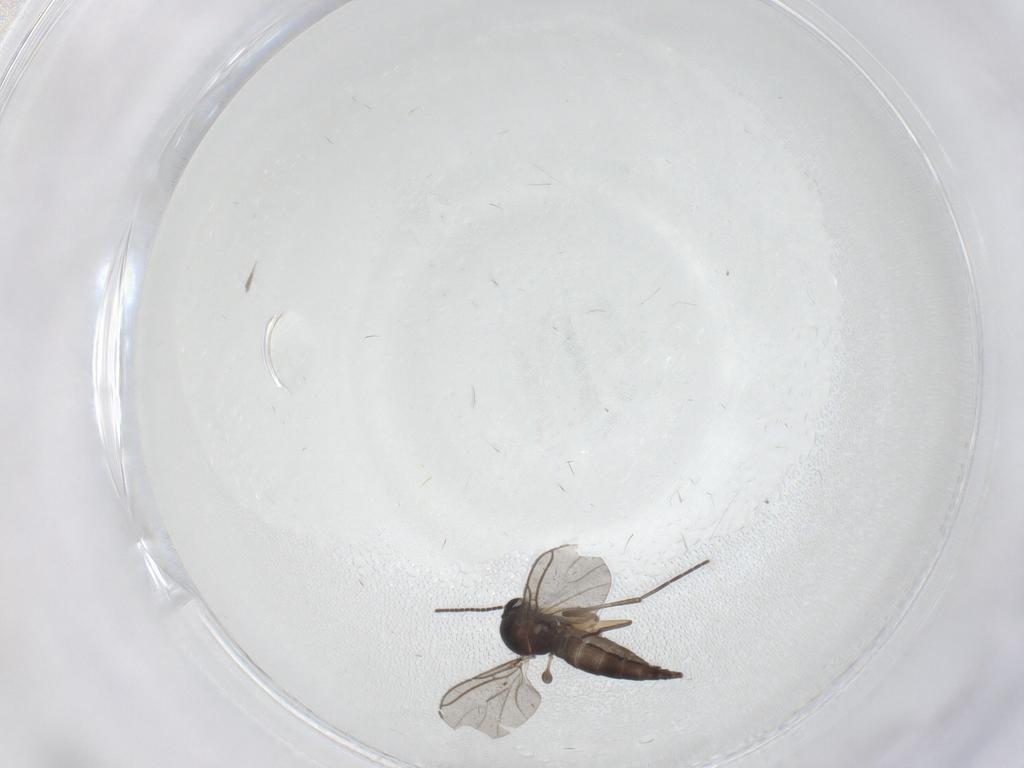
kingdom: Animalia
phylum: Arthropoda
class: Insecta
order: Diptera
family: Sciaridae
